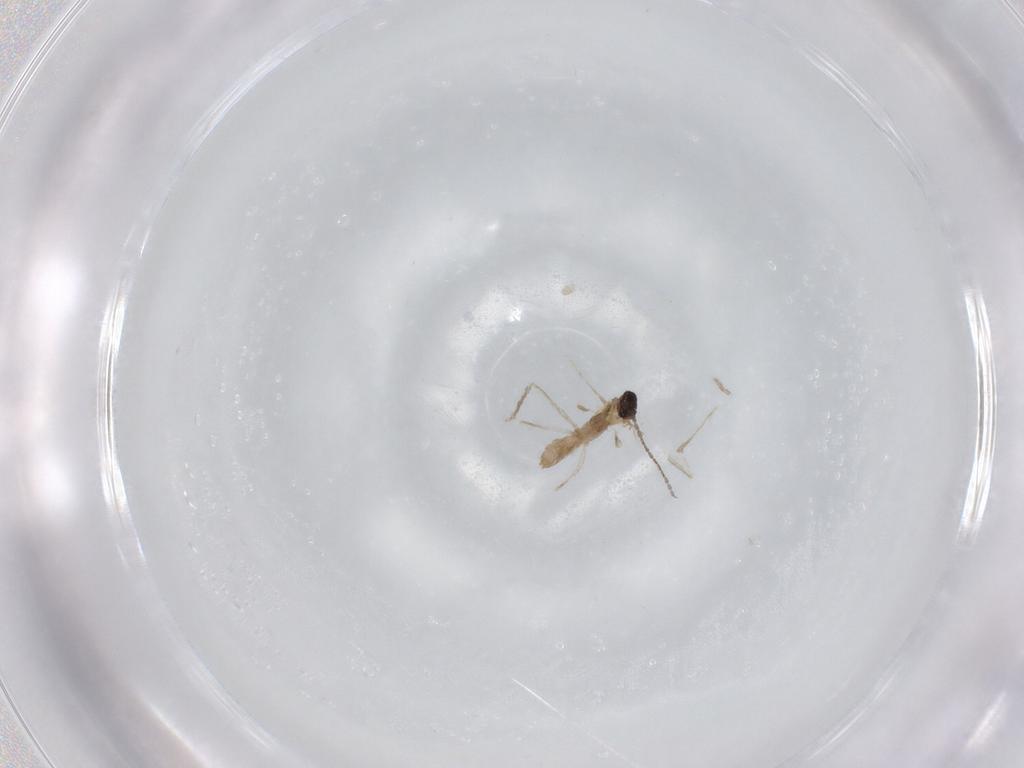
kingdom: Animalia
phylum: Arthropoda
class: Insecta
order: Diptera
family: Cecidomyiidae
